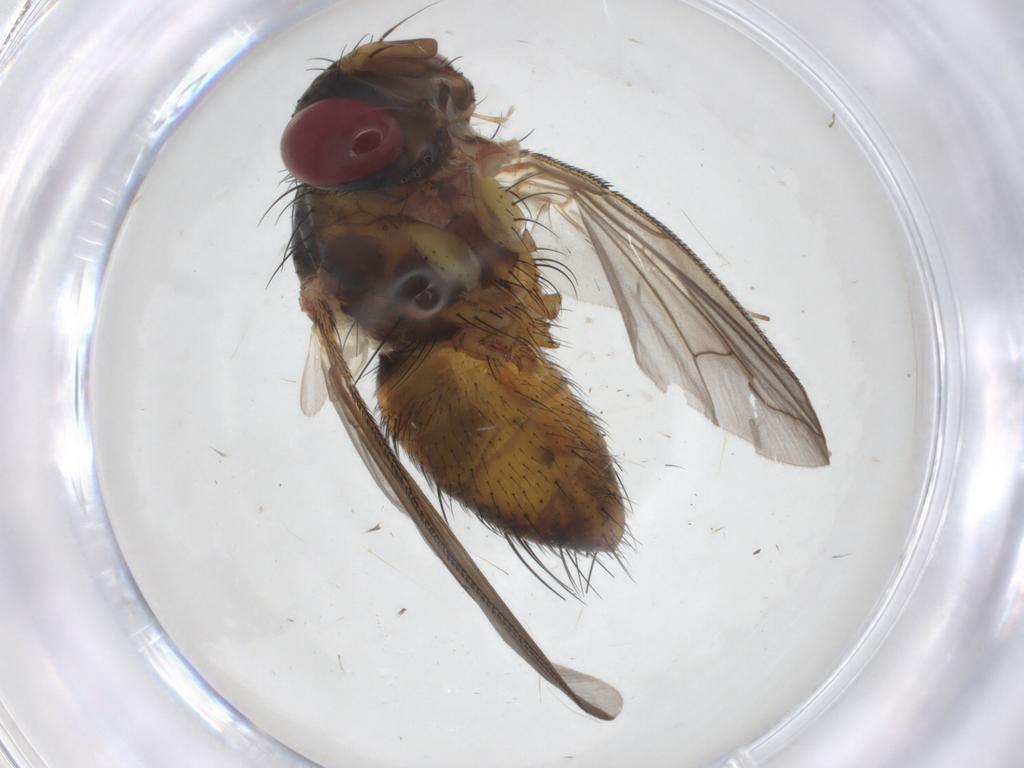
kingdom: Animalia
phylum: Arthropoda
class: Insecta
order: Diptera
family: Tachinidae
